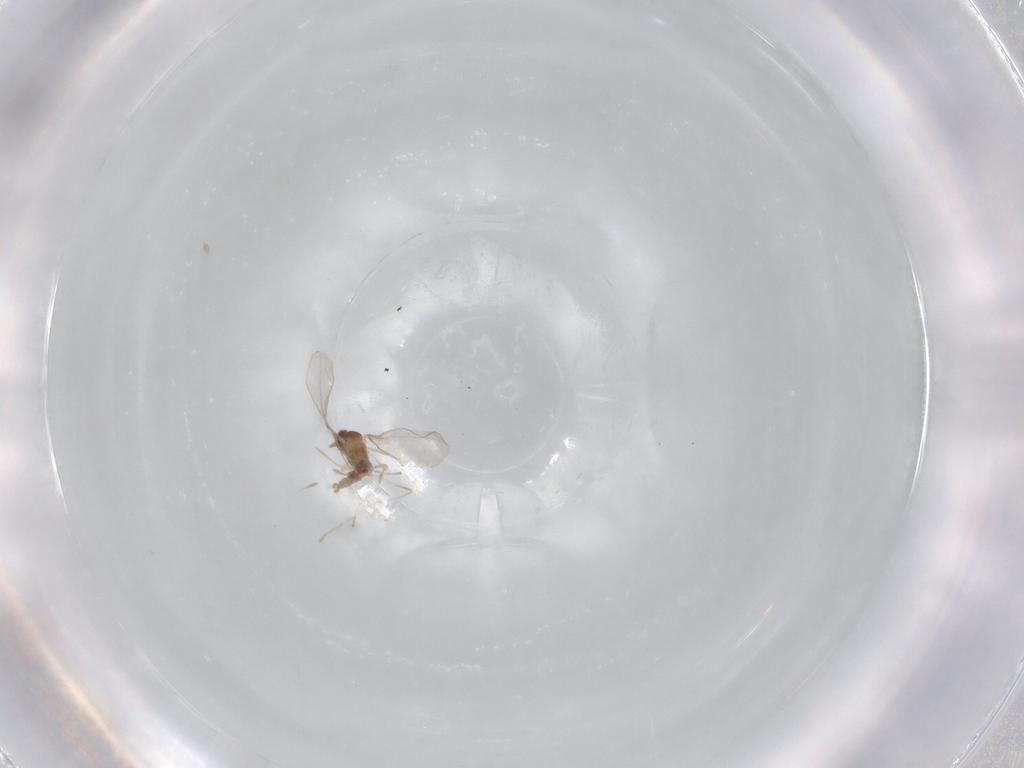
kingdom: Animalia
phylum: Arthropoda
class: Insecta
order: Diptera
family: Cecidomyiidae
